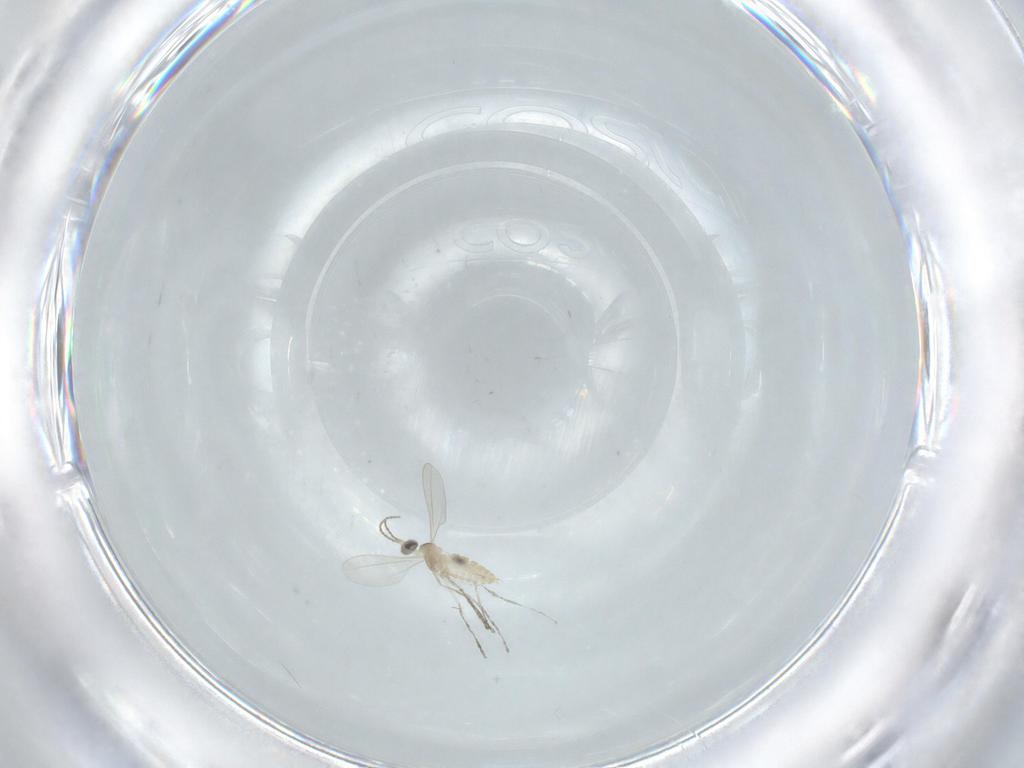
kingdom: Animalia
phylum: Arthropoda
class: Insecta
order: Diptera
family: Cecidomyiidae
